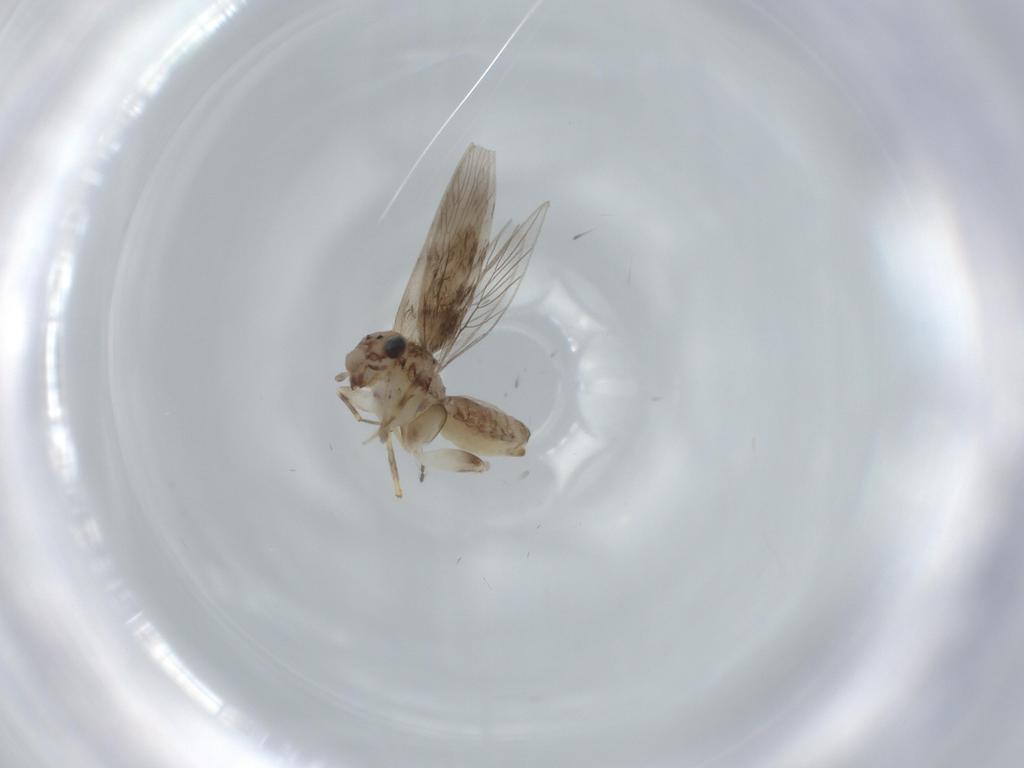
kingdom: Animalia
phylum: Arthropoda
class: Insecta
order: Psocodea
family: Lepidopsocidae
